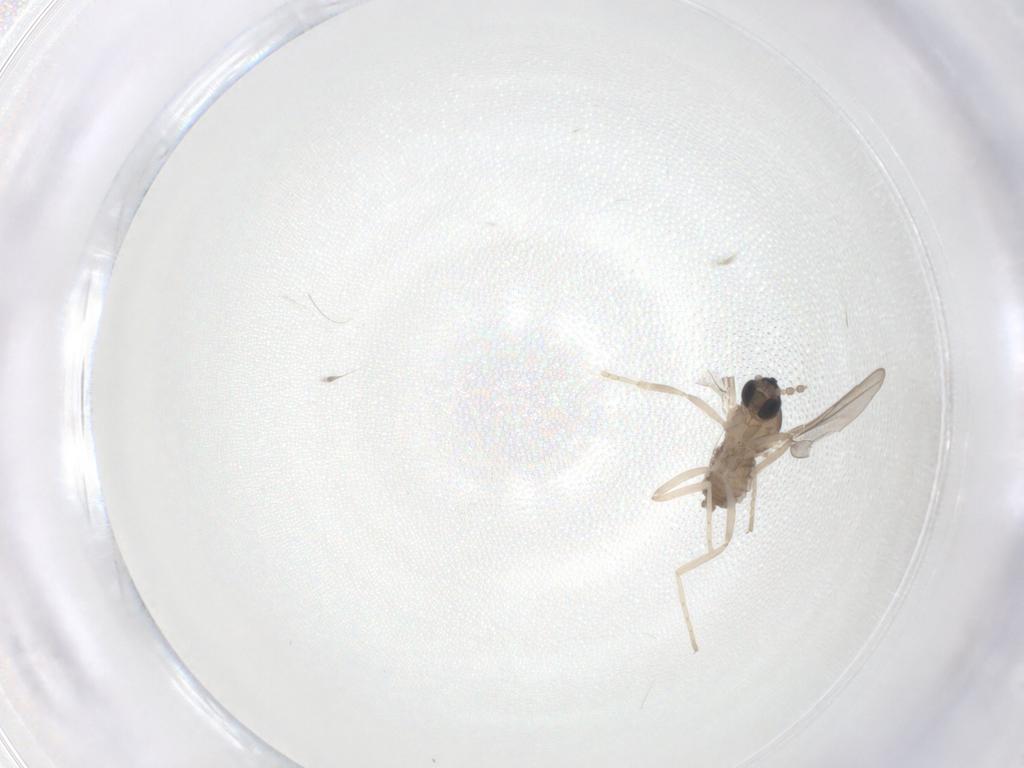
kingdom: Animalia
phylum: Arthropoda
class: Insecta
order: Diptera
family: Cecidomyiidae
